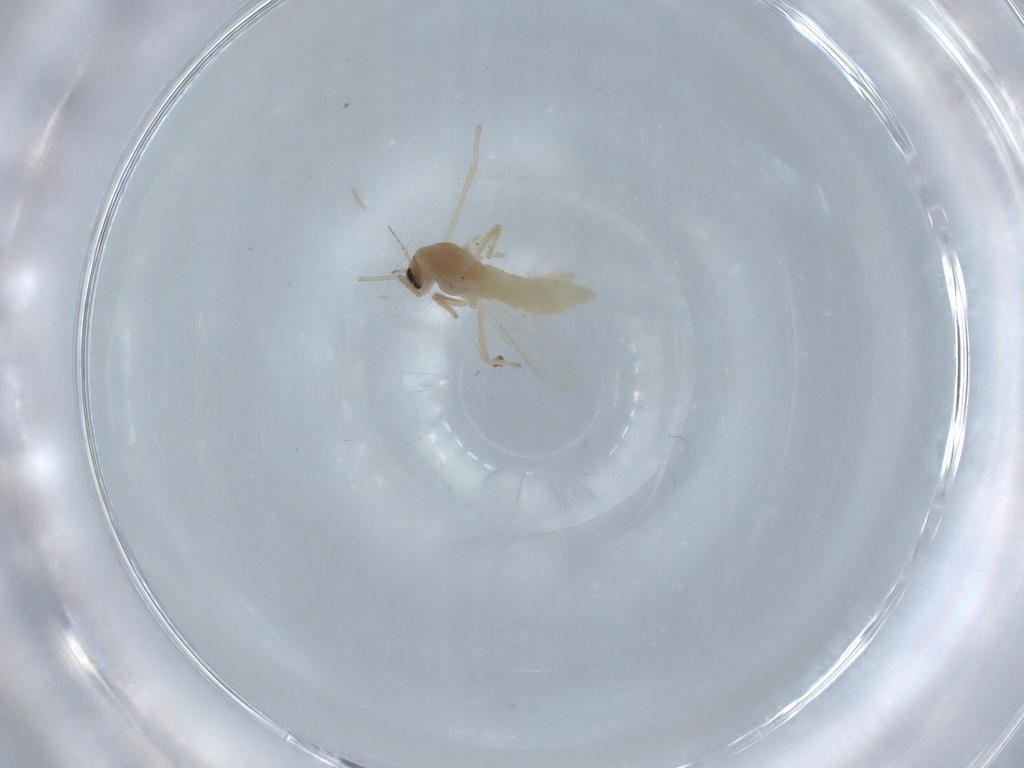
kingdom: Animalia
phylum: Arthropoda
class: Insecta
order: Diptera
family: Chironomidae
